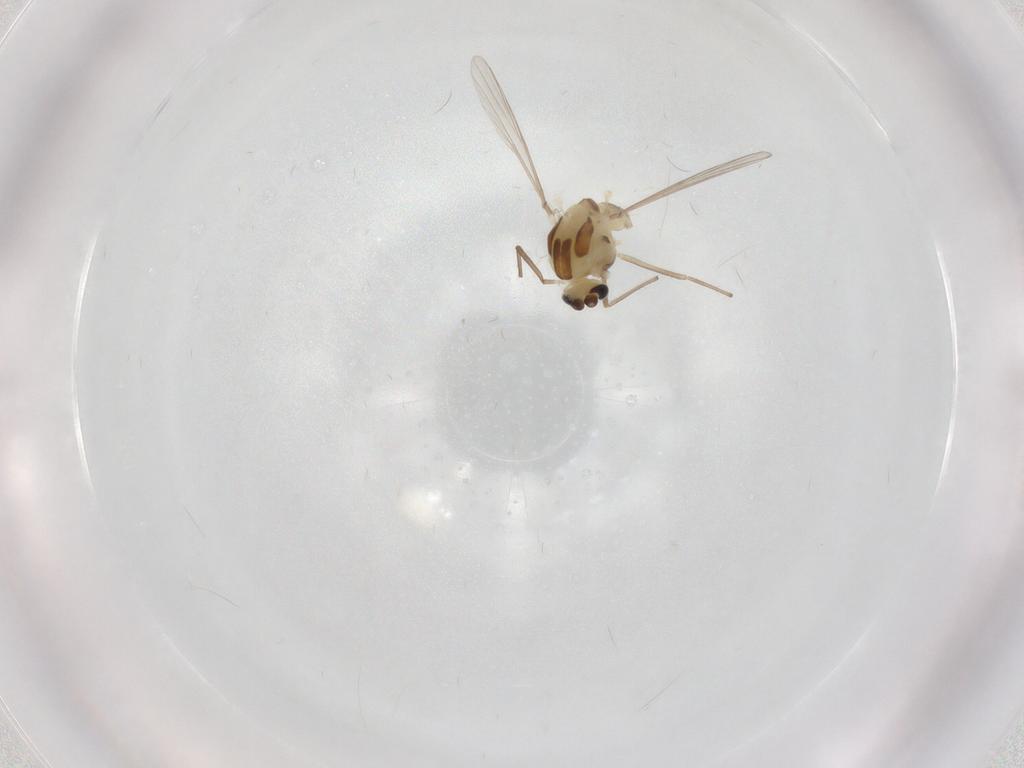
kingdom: Animalia
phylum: Arthropoda
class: Insecta
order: Diptera
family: Chironomidae
